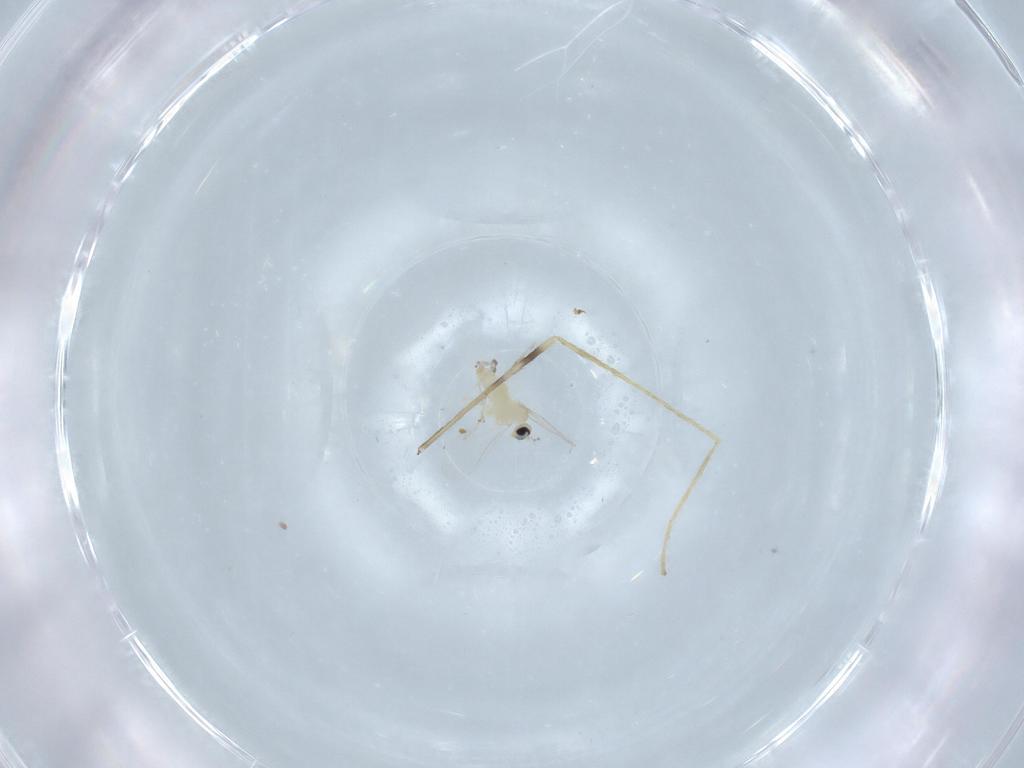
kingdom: Animalia
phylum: Arthropoda
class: Insecta
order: Diptera
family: Cecidomyiidae
